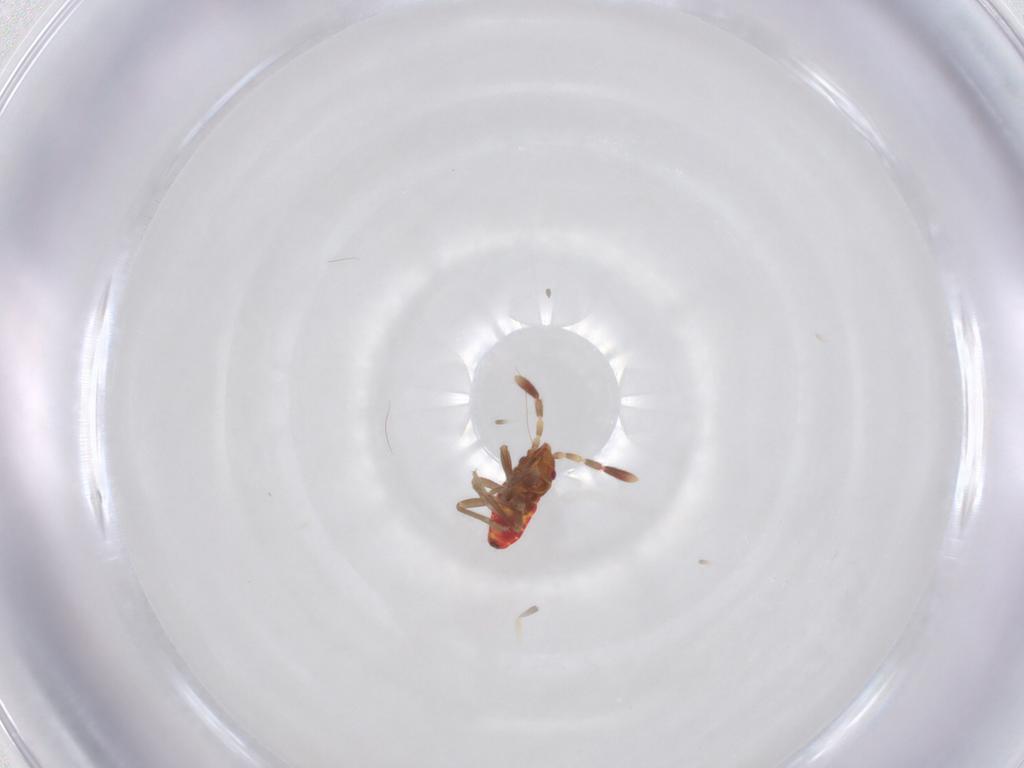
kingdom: Animalia
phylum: Arthropoda
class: Insecta
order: Hemiptera
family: Rhyparochromidae
